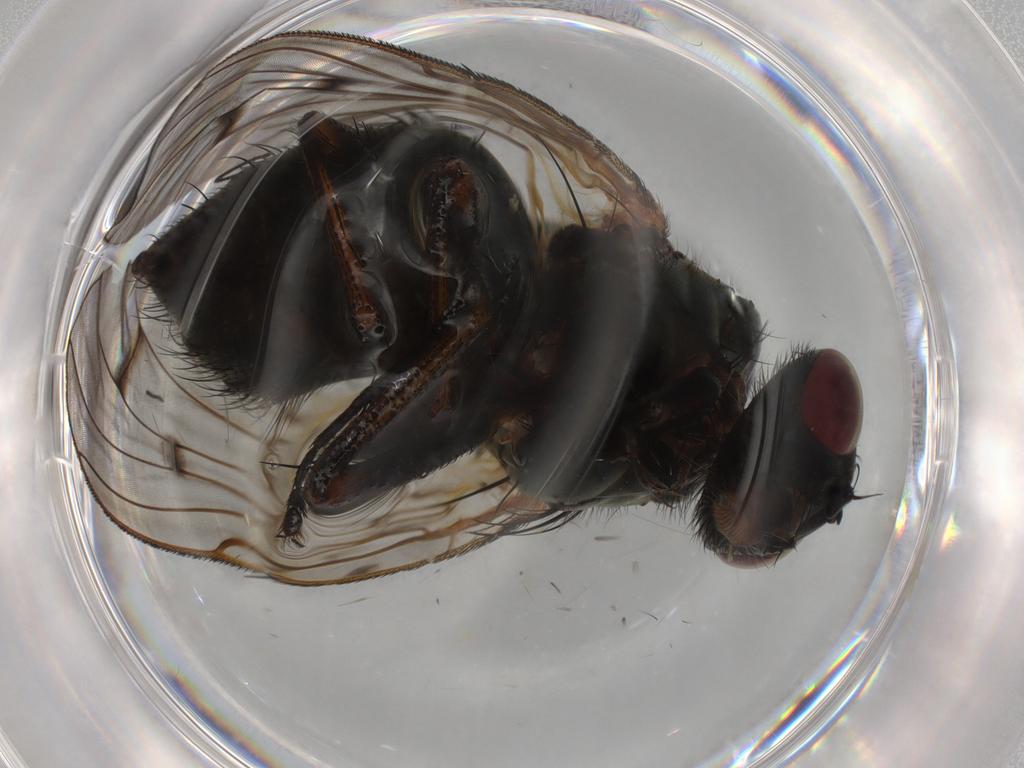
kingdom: Animalia
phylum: Arthropoda
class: Insecta
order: Diptera
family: Muscidae
